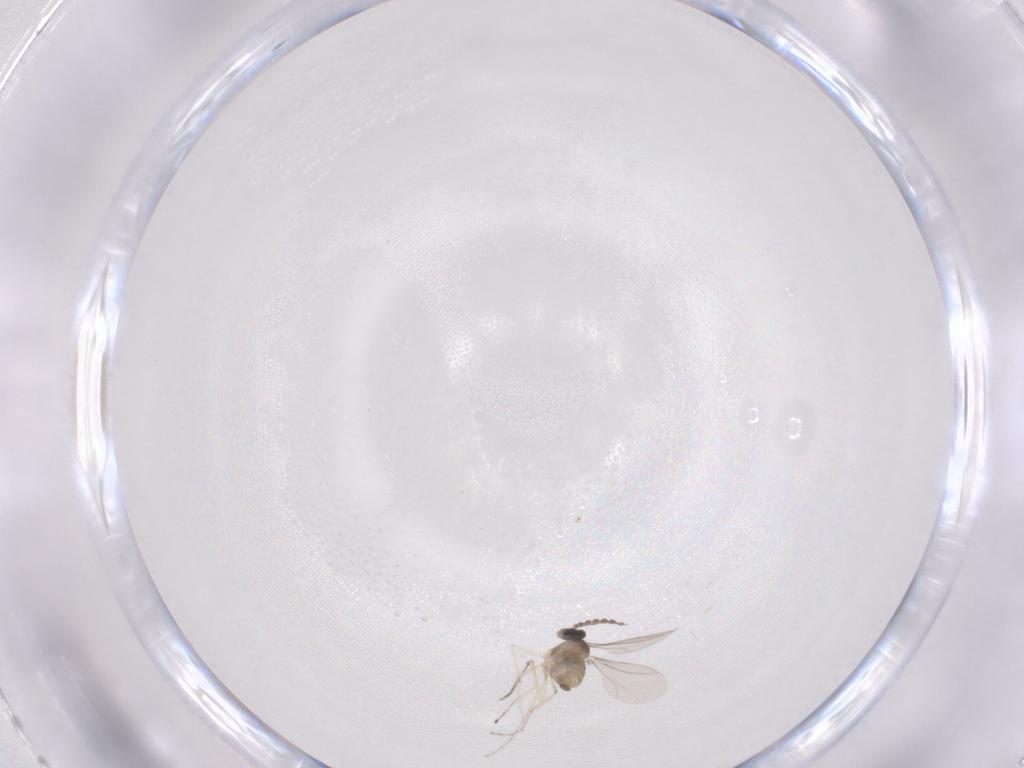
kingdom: Animalia
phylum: Arthropoda
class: Insecta
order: Diptera
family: Cecidomyiidae
